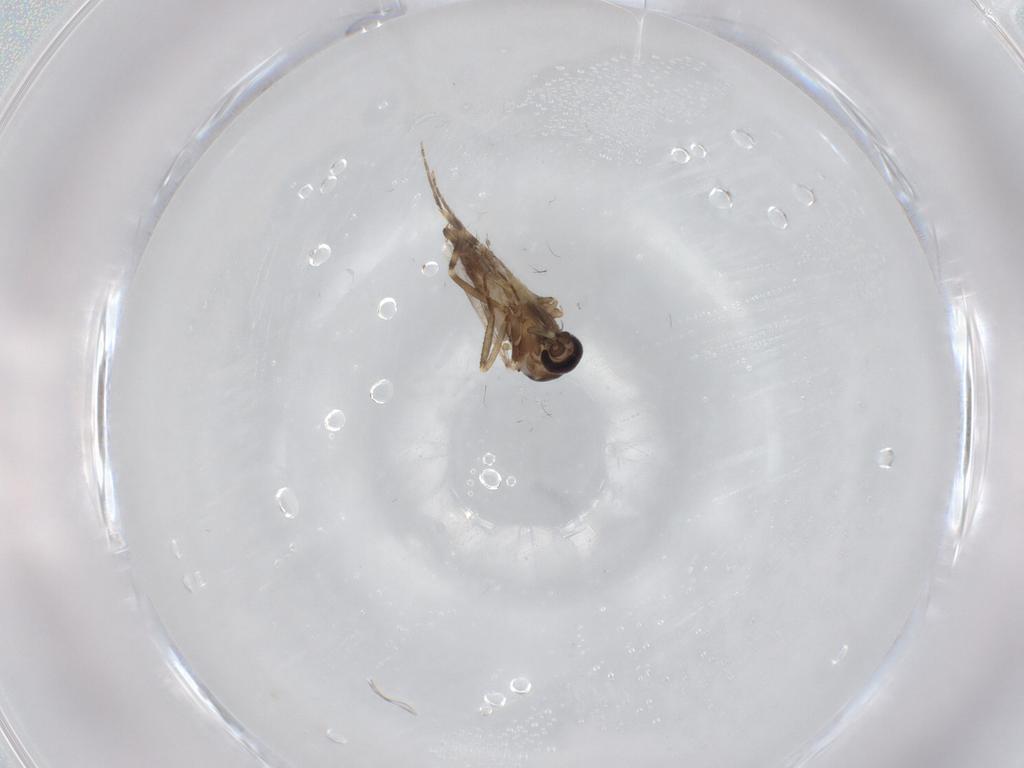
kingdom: Animalia
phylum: Arthropoda
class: Insecta
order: Diptera
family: Ceratopogonidae
